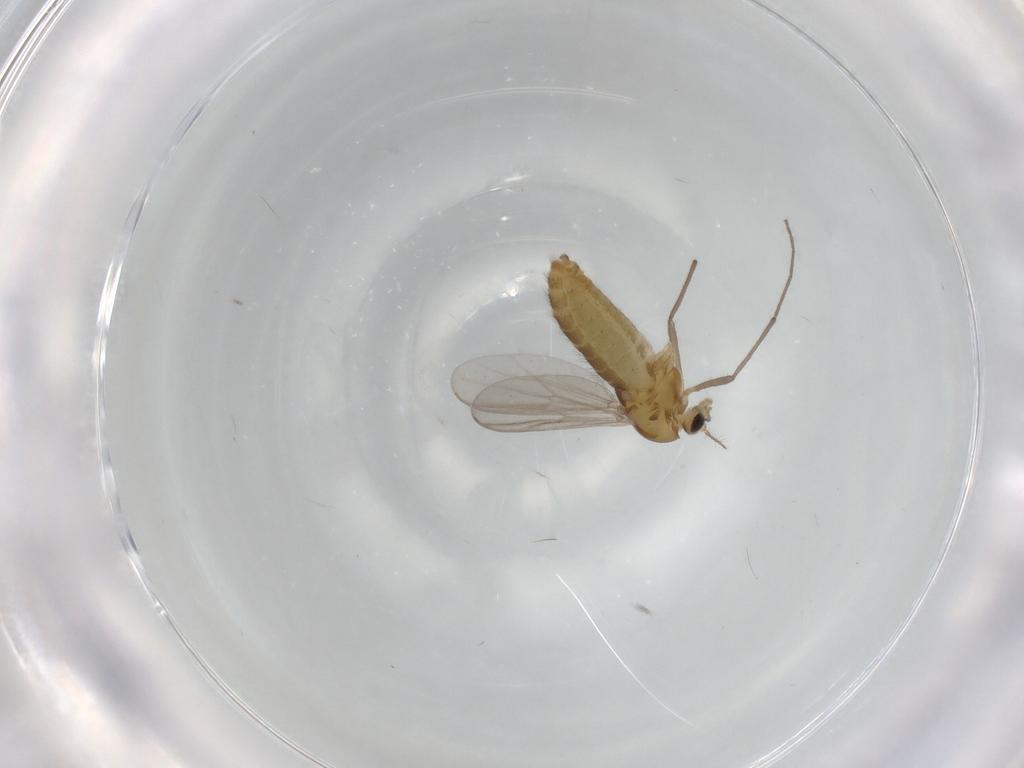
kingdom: Animalia
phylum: Arthropoda
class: Insecta
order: Diptera
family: Chironomidae
